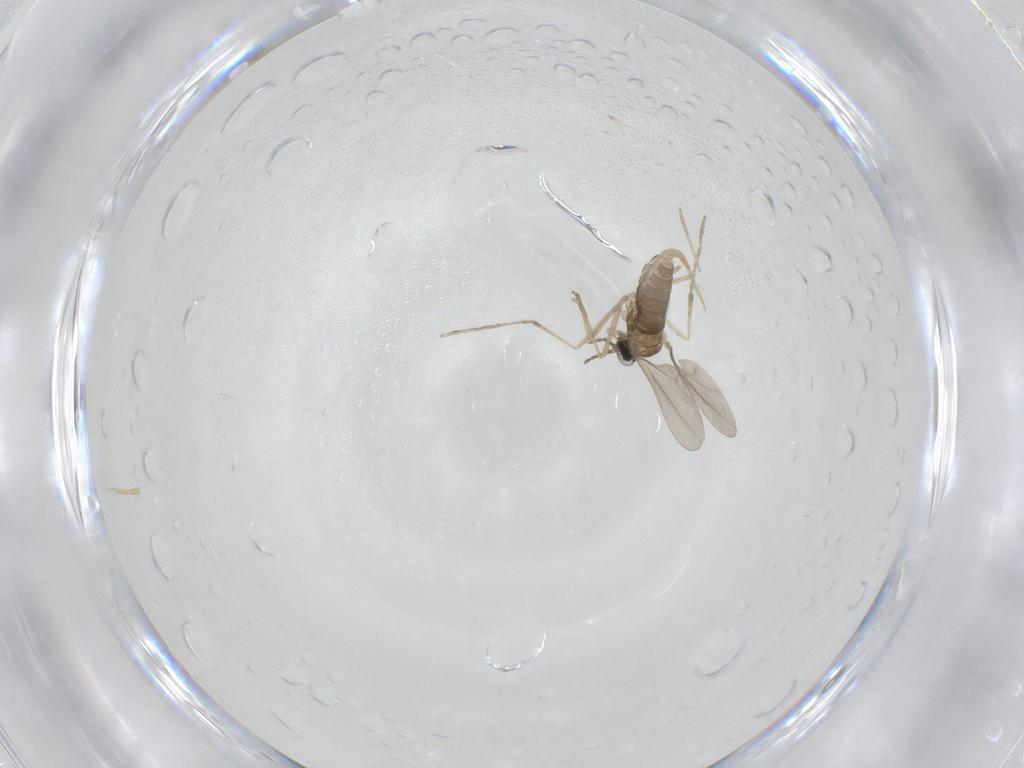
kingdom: Animalia
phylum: Arthropoda
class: Insecta
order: Diptera
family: Cecidomyiidae
